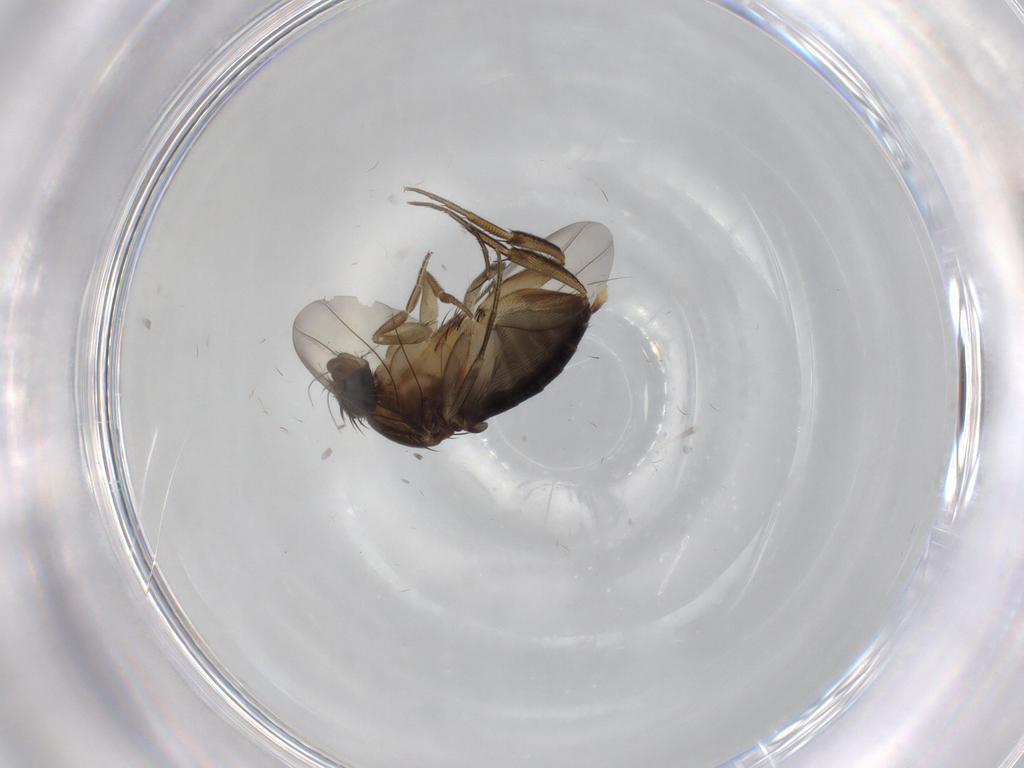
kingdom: Animalia
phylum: Arthropoda
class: Insecta
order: Diptera
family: Phoridae
